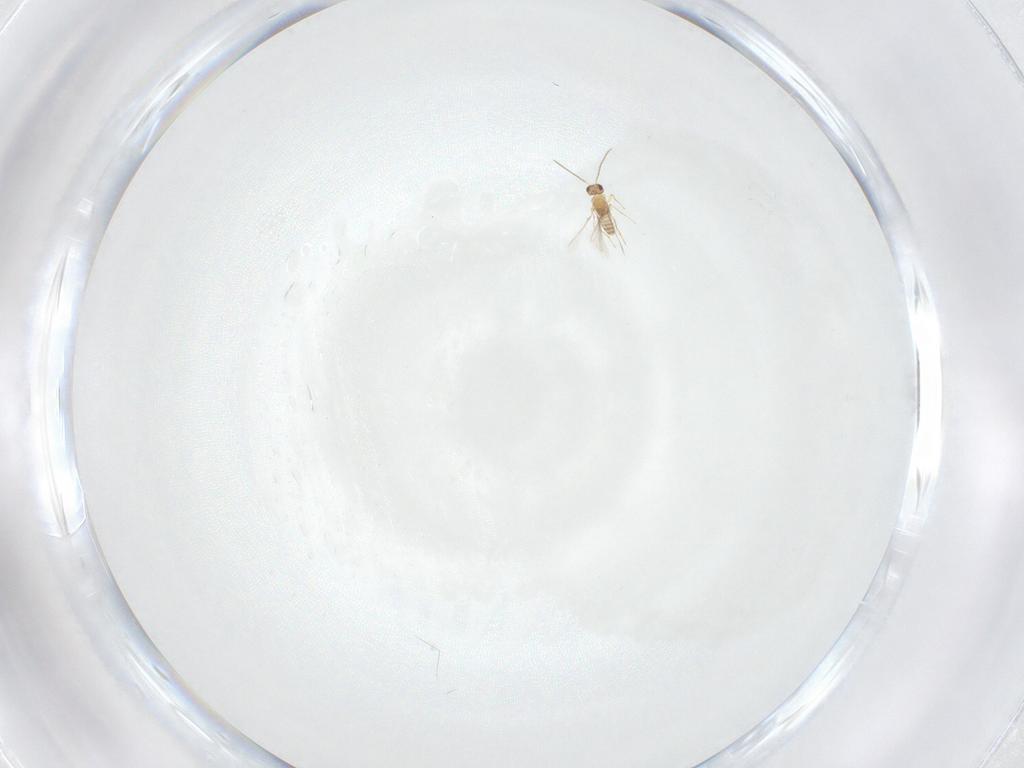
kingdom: Animalia
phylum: Arthropoda
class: Insecta
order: Hymenoptera
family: Mymaridae
